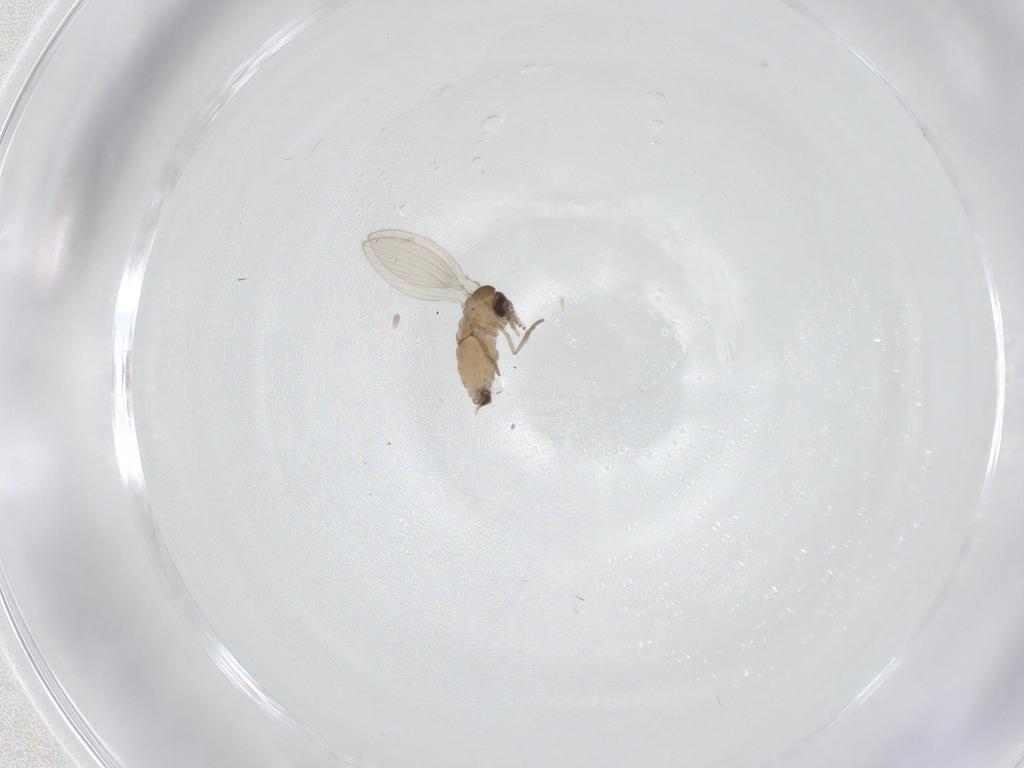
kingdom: Animalia
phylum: Arthropoda
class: Insecta
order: Diptera
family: Psychodidae
